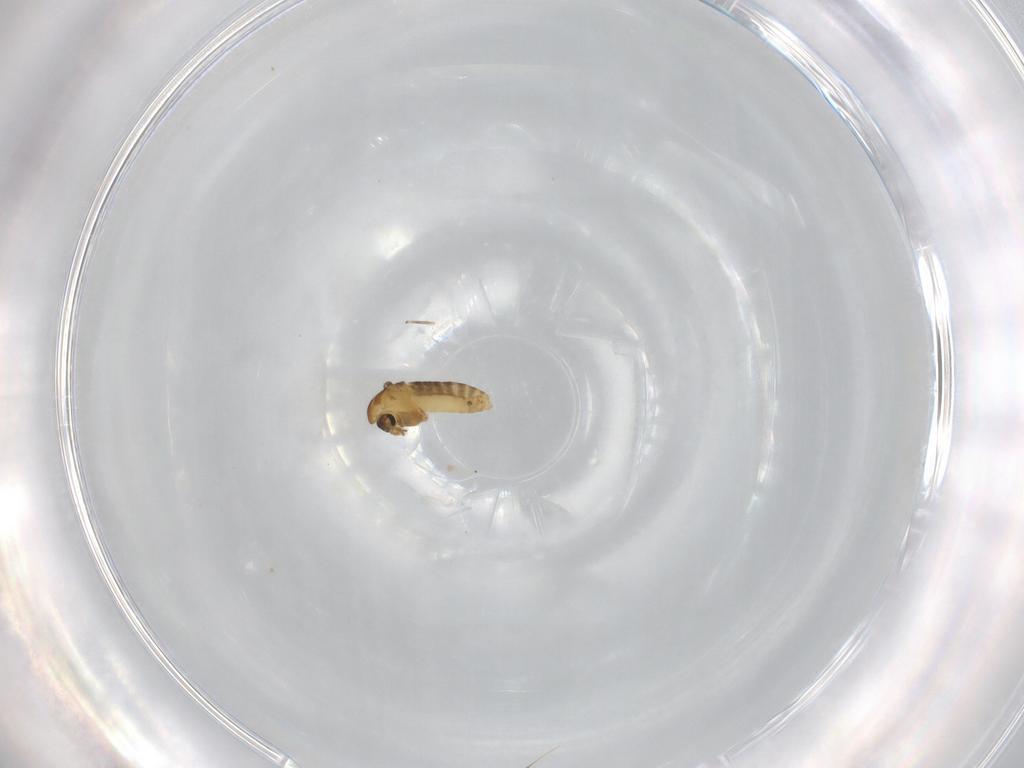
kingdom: Animalia
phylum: Arthropoda
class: Insecta
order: Diptera
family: Chironomidae
